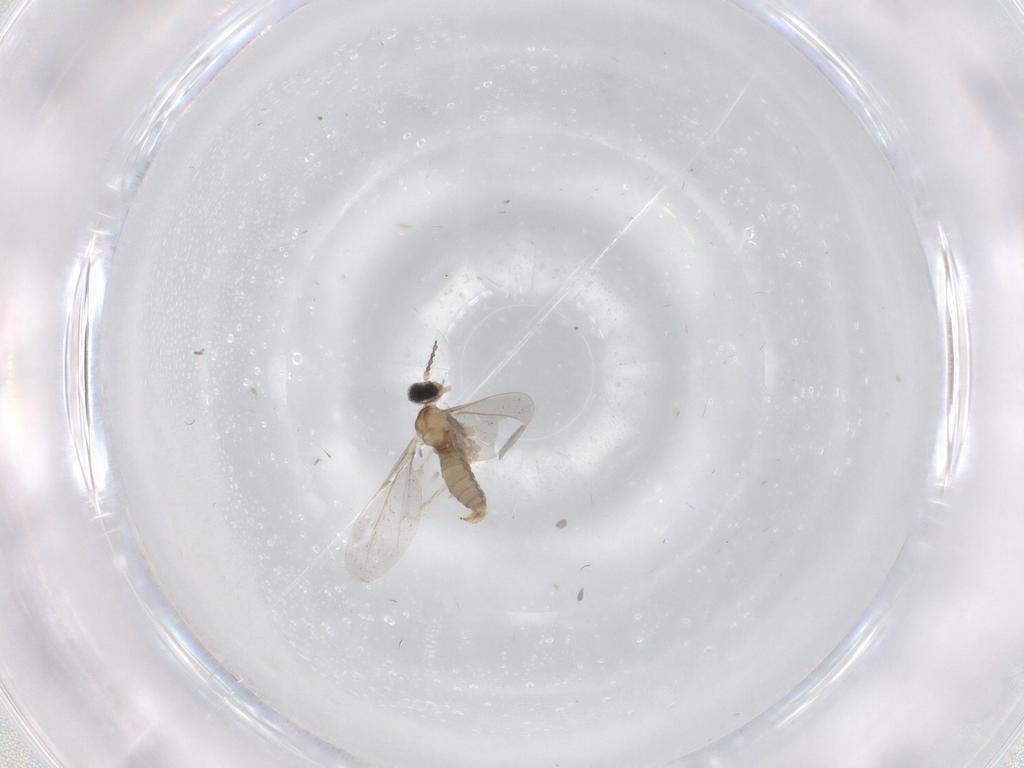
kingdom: Animalia
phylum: Arthropoda
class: Insecta
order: Diptera
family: Cecidomyiidae
